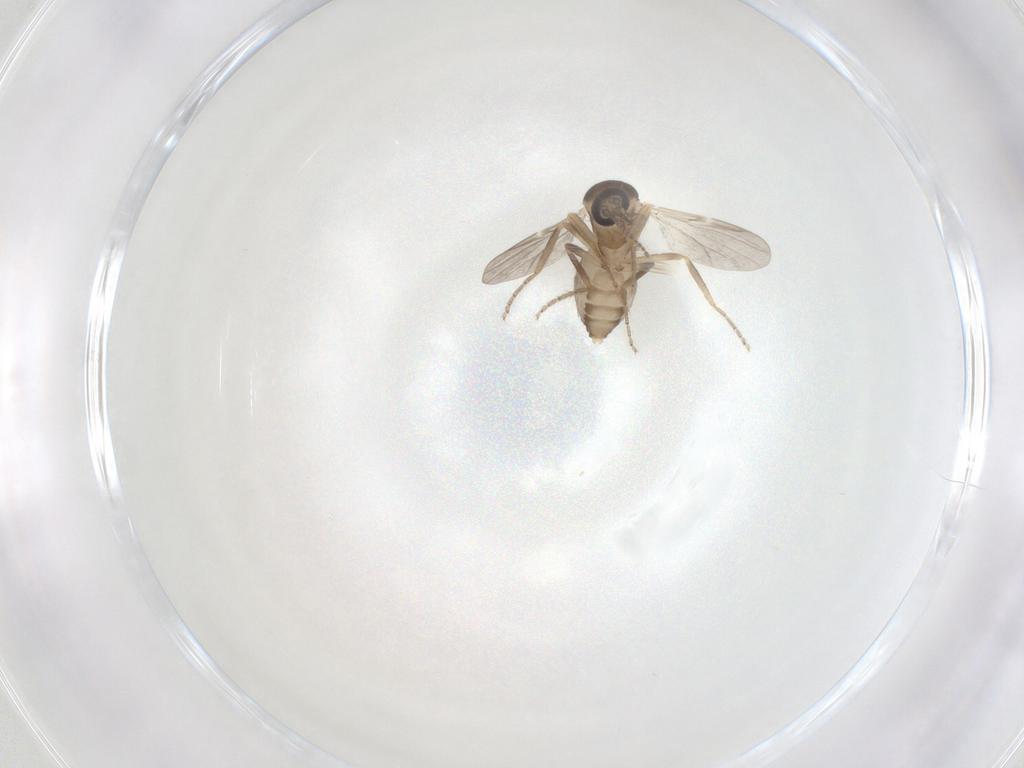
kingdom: Animalia
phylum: Arthropoda
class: Insecta
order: Diptera
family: Ceratopogonidae
